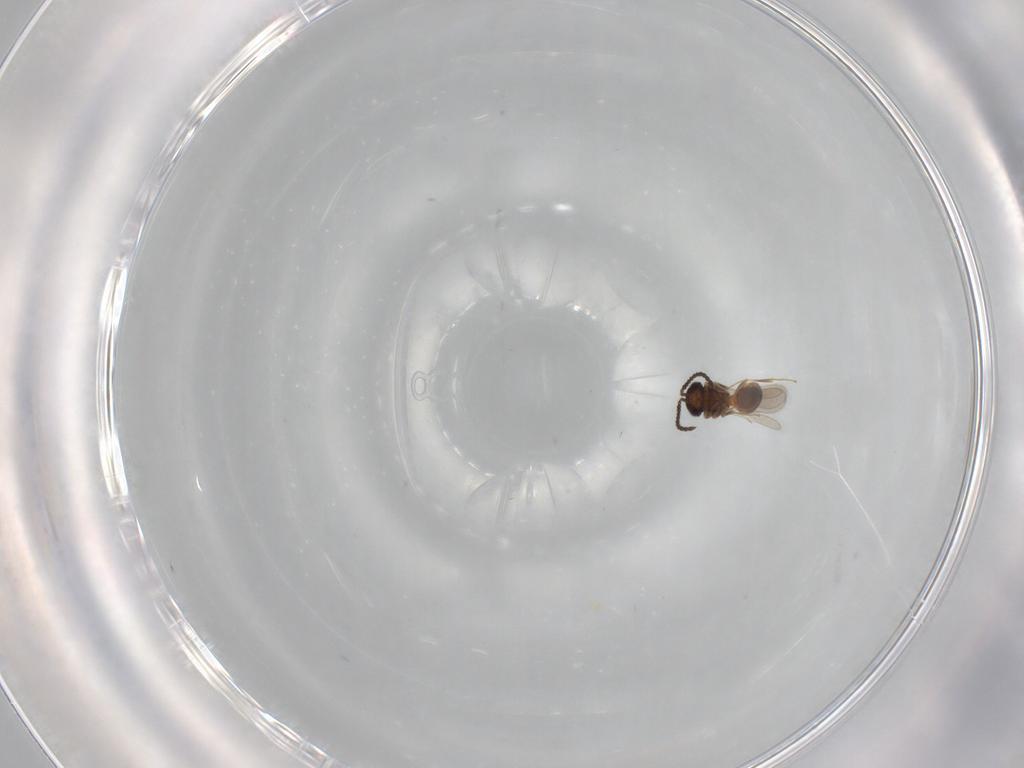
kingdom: Animalia
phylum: Arthropoda
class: Insecta
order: Hymenoptera
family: Scelionidae
